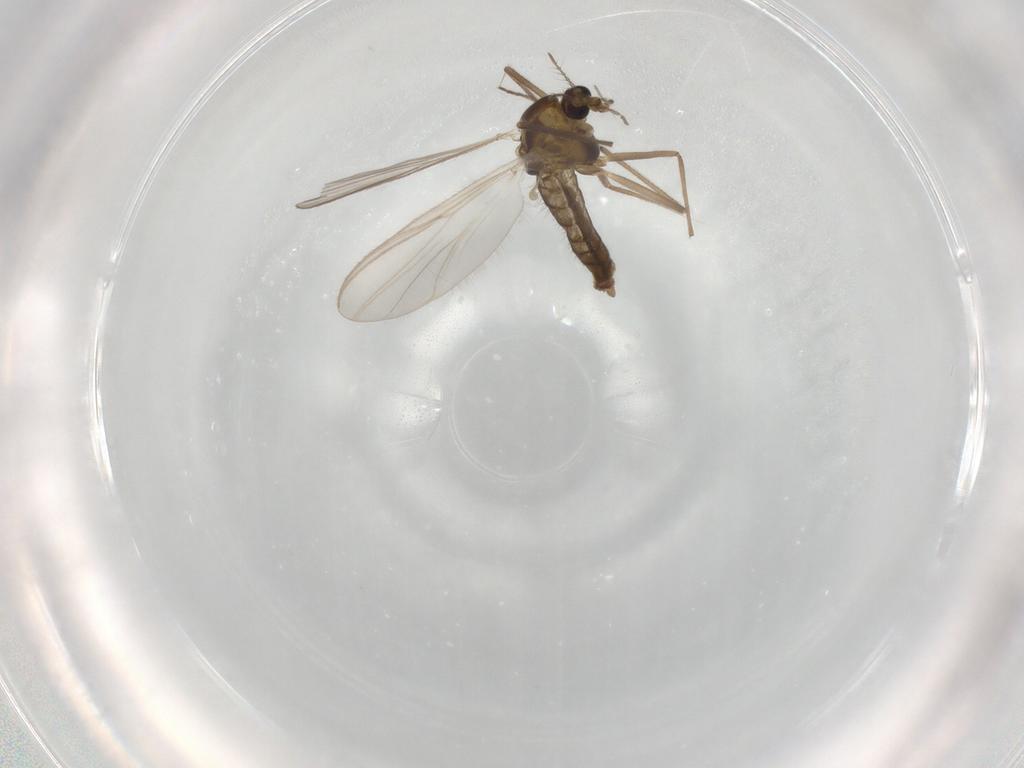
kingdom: Animalia
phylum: Arthropoda
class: Insecta
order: Diptera
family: Chironomidae
